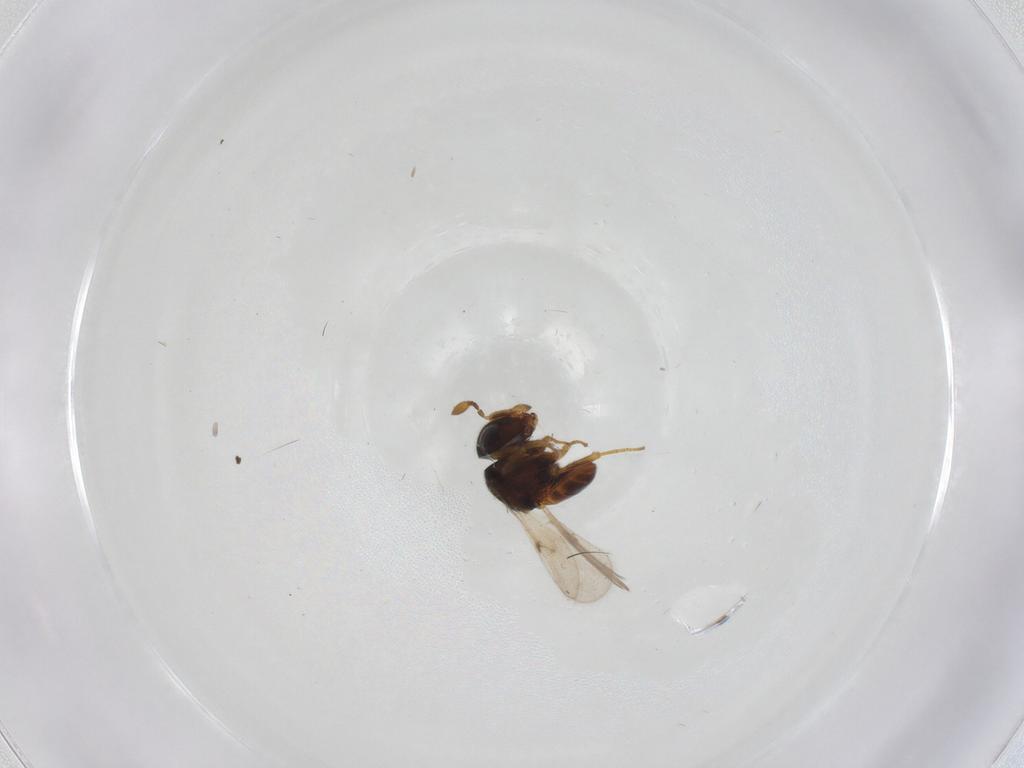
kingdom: Animalia
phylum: Arthropoda
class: Insecta
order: Hymenoptera
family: Scelionidae
